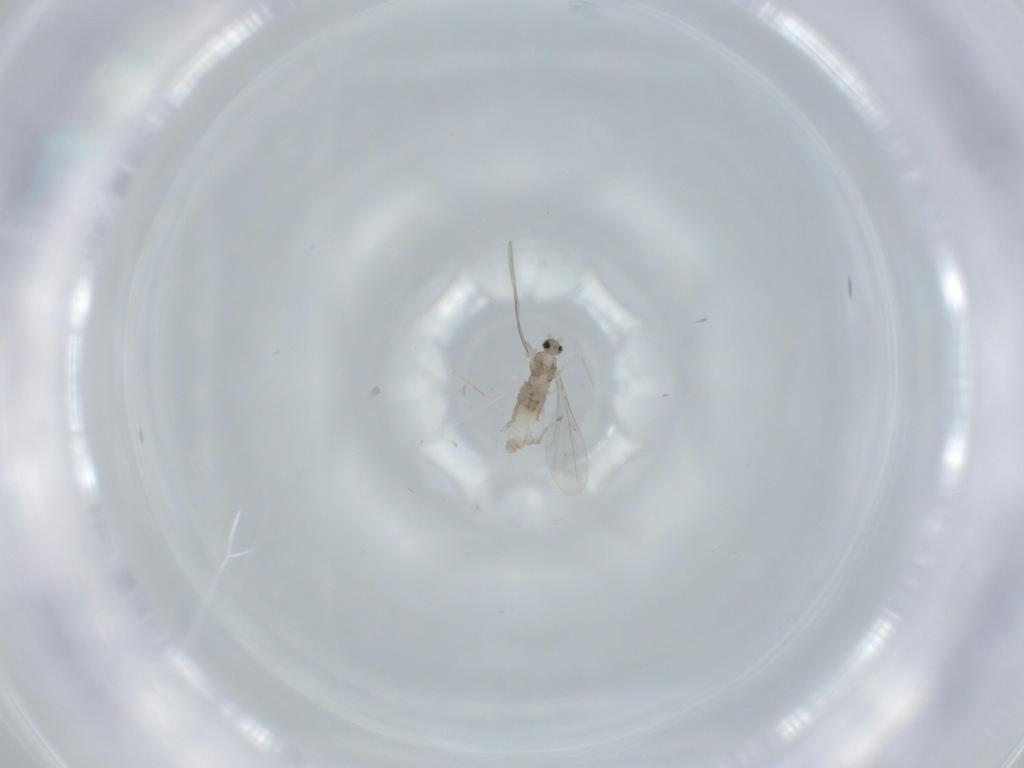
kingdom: Animalia
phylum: Arthropoda
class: Insecta
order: Diptera
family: Cecidomyiidae
